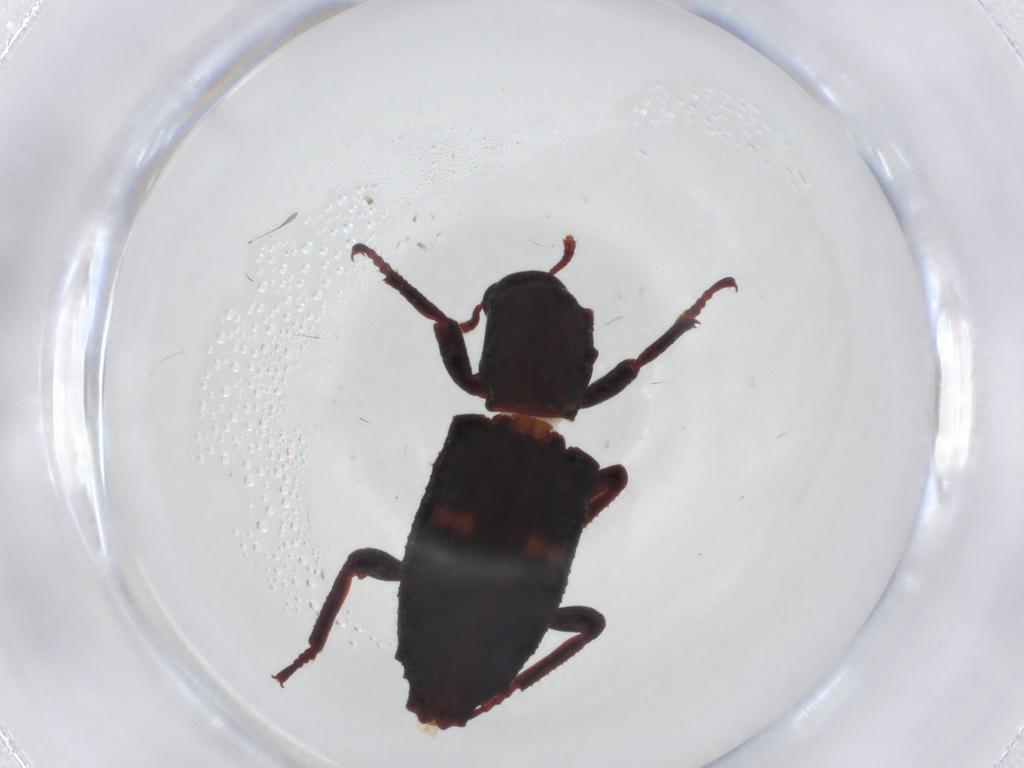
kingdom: Animalia
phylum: Arthropoda
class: Insecta
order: Coleoptera
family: Bothrideridae
